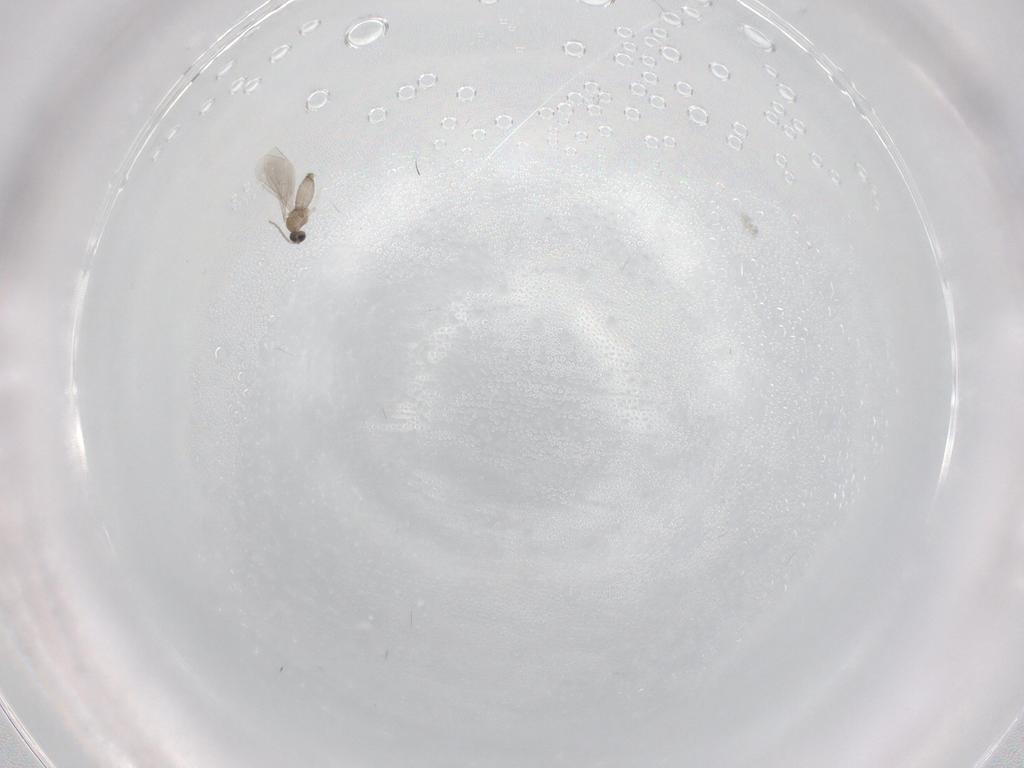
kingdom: Animalia
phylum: Arthropoda
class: Insecta
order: Diptera
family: Cecidomyiidae
